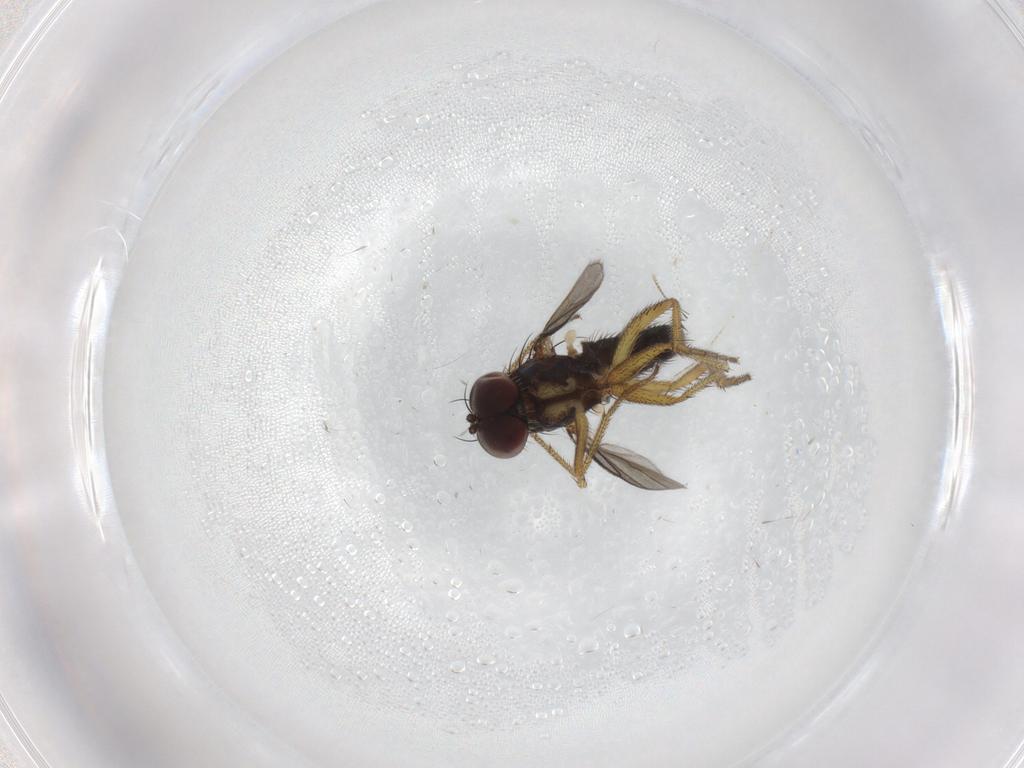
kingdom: Animalia
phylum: Arthropoda
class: Insecta
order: Diptera
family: Dolichopodidae
